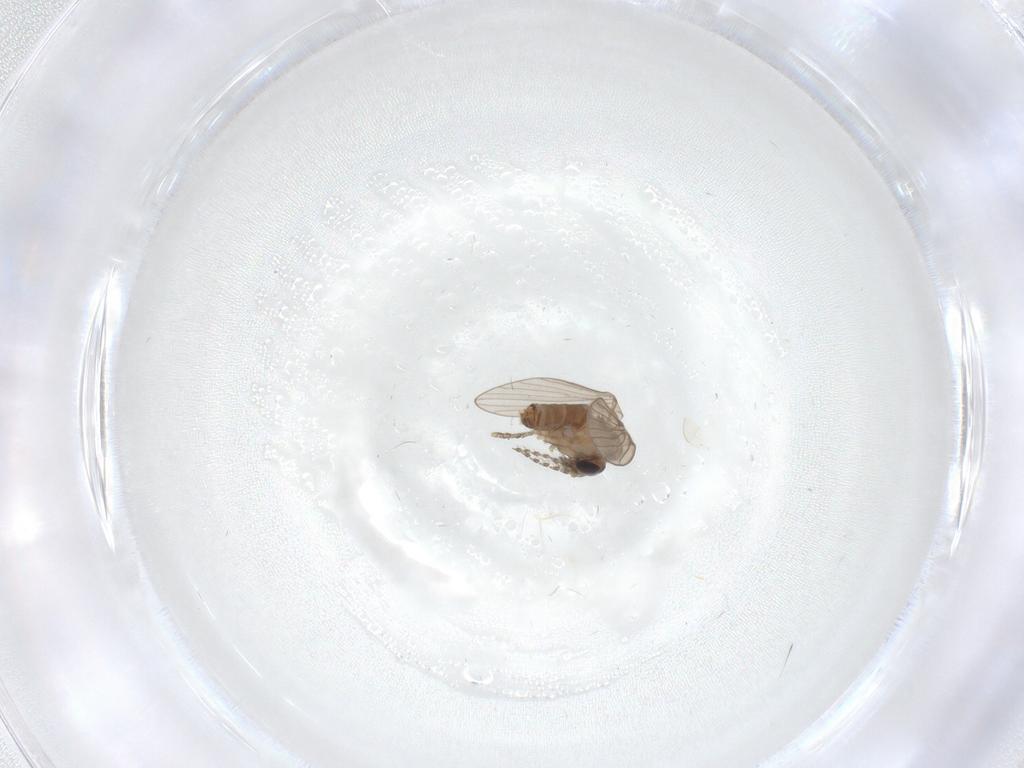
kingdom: Animalia
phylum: Arthropoda
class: Insecta
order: Diptera
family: Psychodidae
